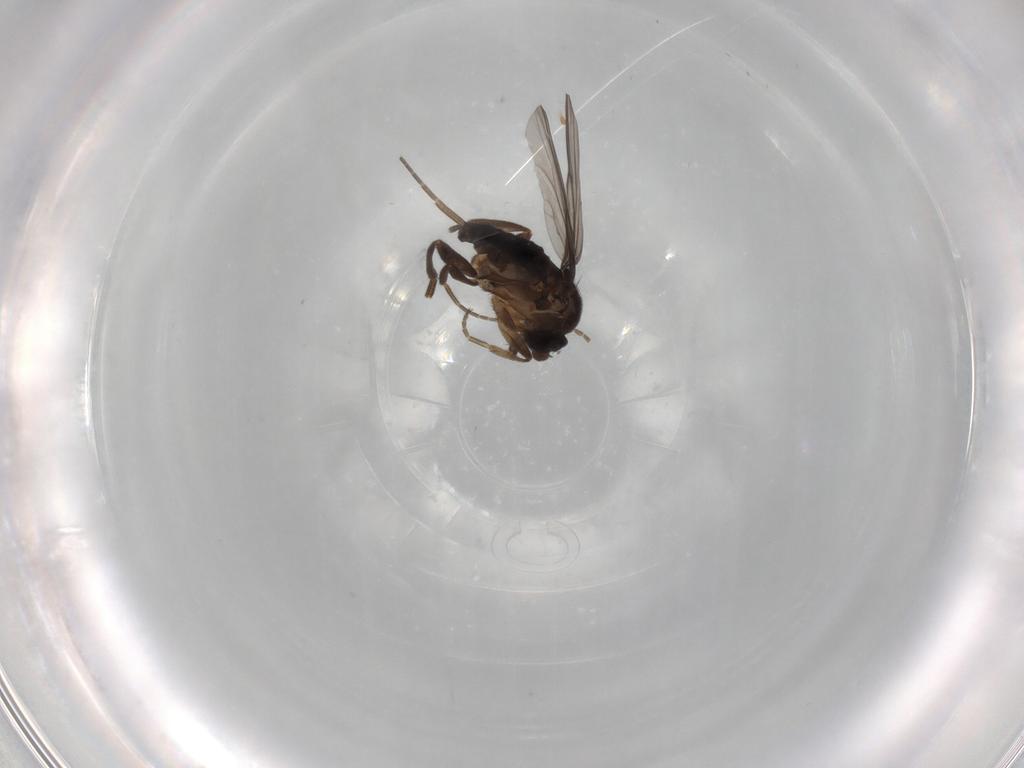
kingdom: Animalia
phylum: Arthropoda
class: Insecta
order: Diptera
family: Phoridae
